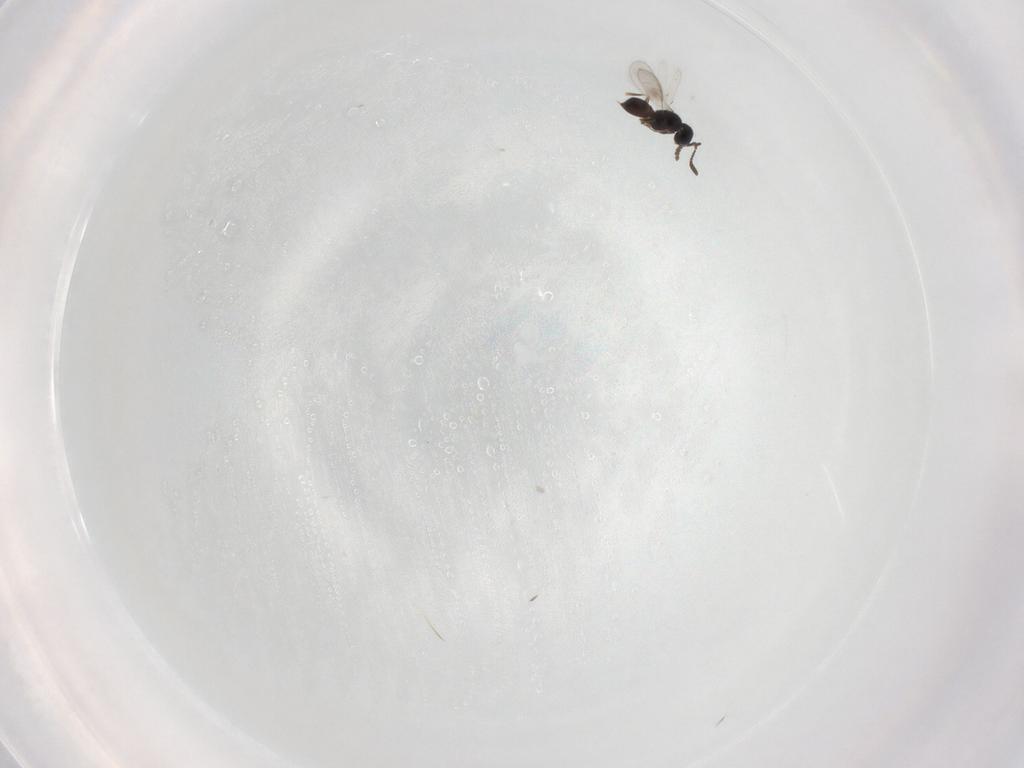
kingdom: Animalia
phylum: Arthropoda
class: Insecta
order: Hymenoptera
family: Scelionidae
